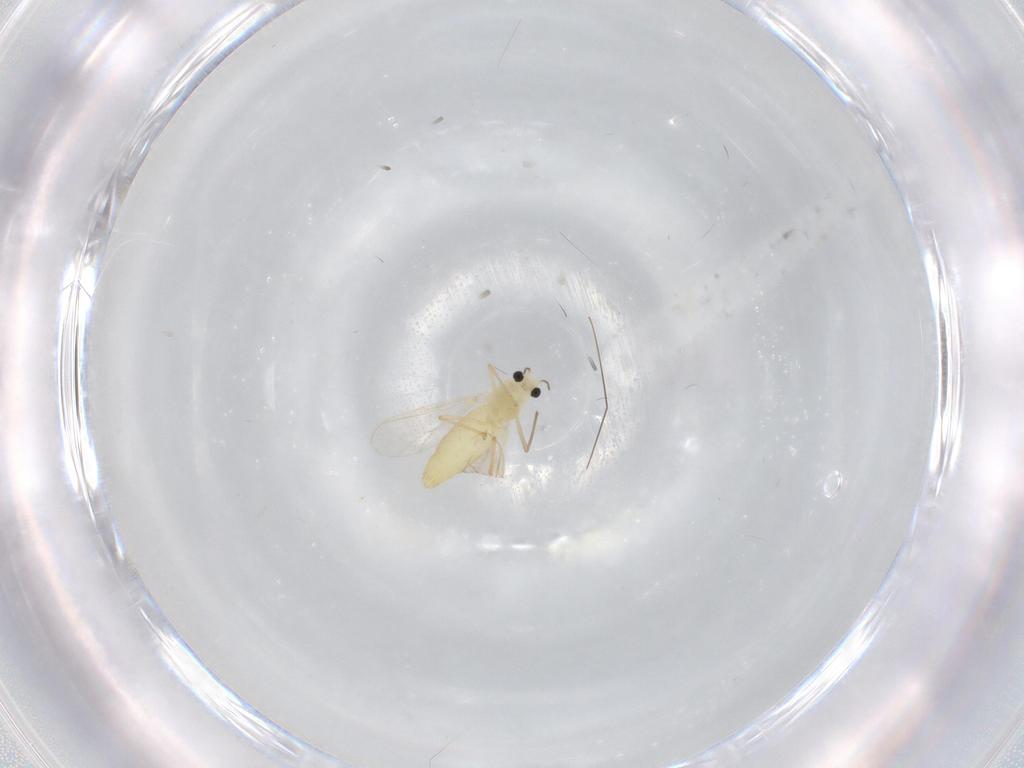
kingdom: Animalia
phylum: Arthropoda
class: Insecta
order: Diptera
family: Chironomidae
